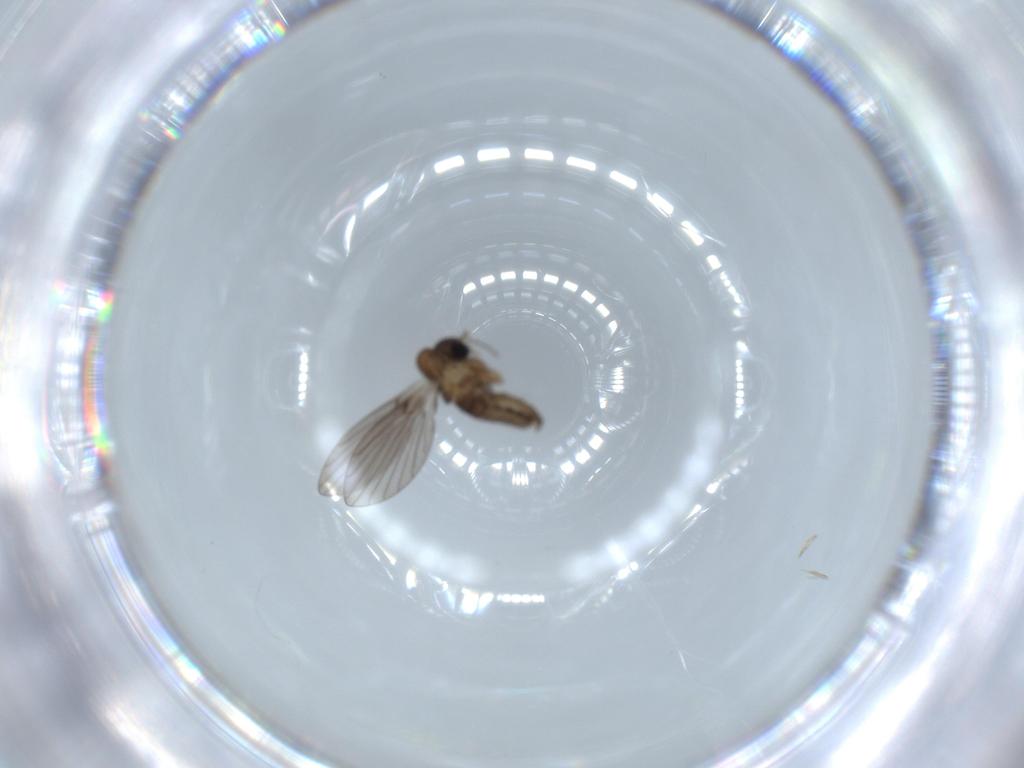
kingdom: Animalia
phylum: Arthropoda
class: Insecta
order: Diptera
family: Psychodidae
